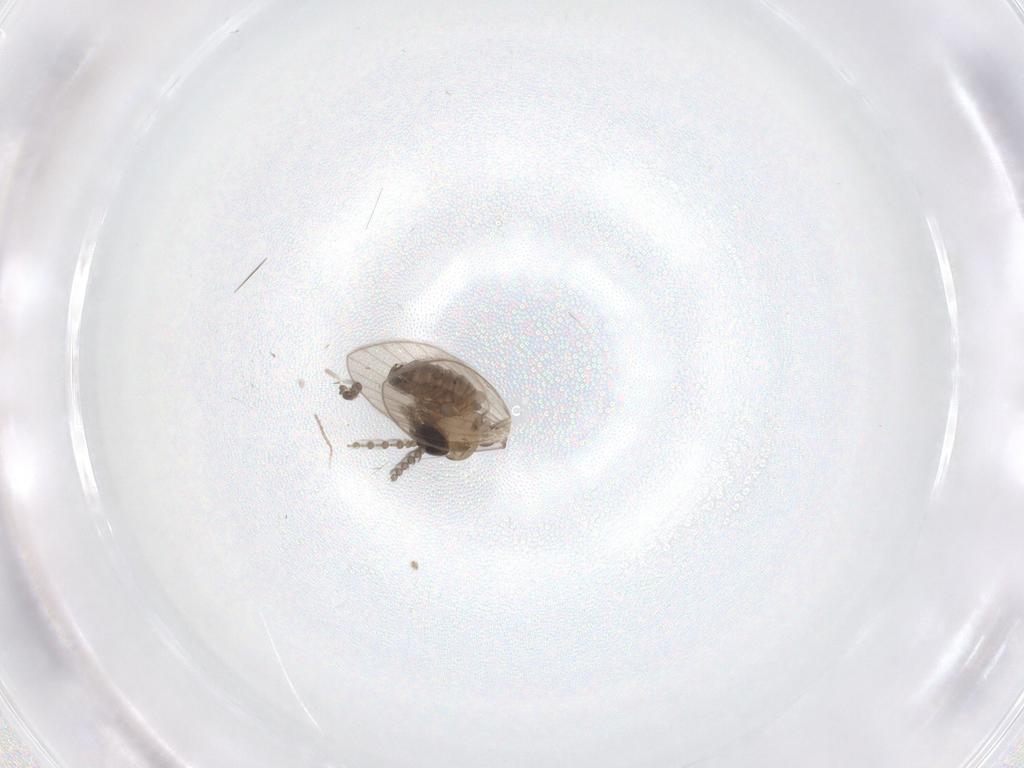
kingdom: Animalia
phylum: Arthropoda
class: Insecta
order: Diptera
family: Psychodidae
